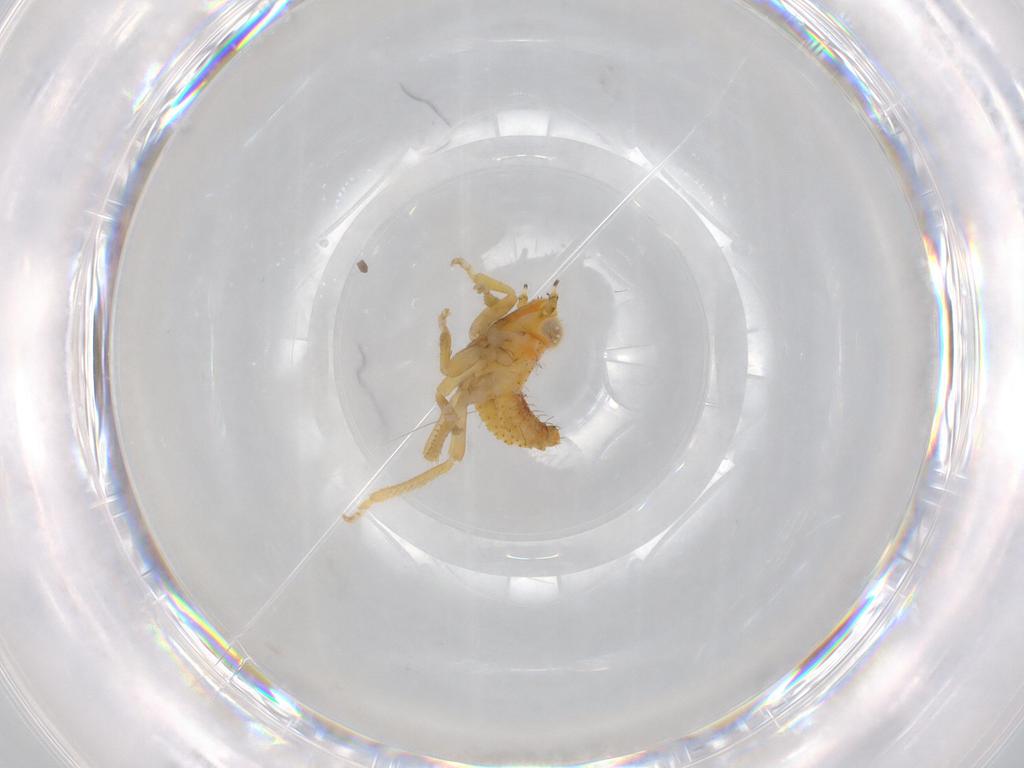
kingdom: Animalia
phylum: Arthropoda
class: Insecta
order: Hemiptera
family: Cicadellidae
